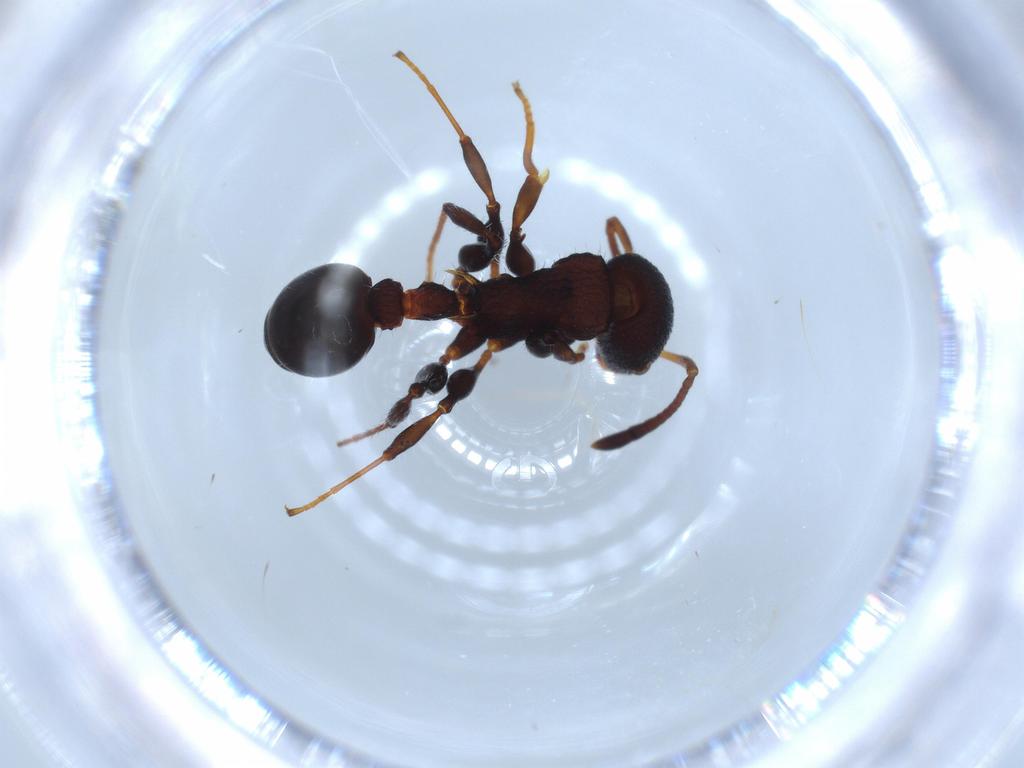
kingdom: Animalia
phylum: Arthropoda
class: Insecta
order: Hymenoptera
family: Formicidae
